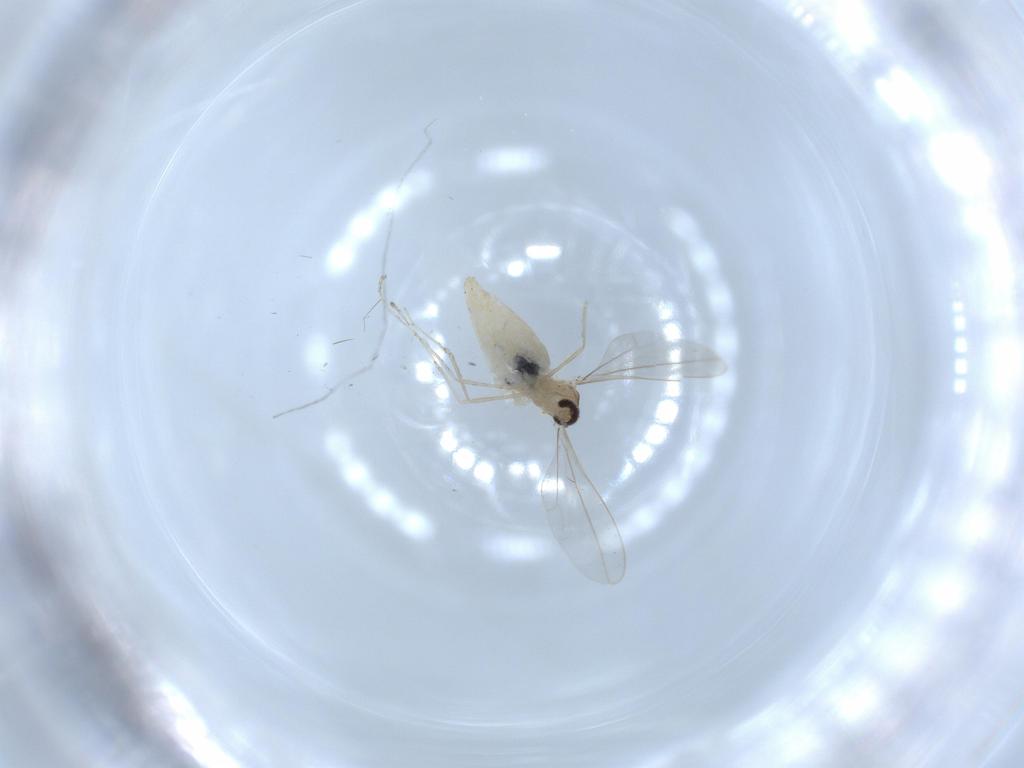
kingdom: Animalia
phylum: Arthropoda
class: Insecta
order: Diptera
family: Cecidomyiidae
